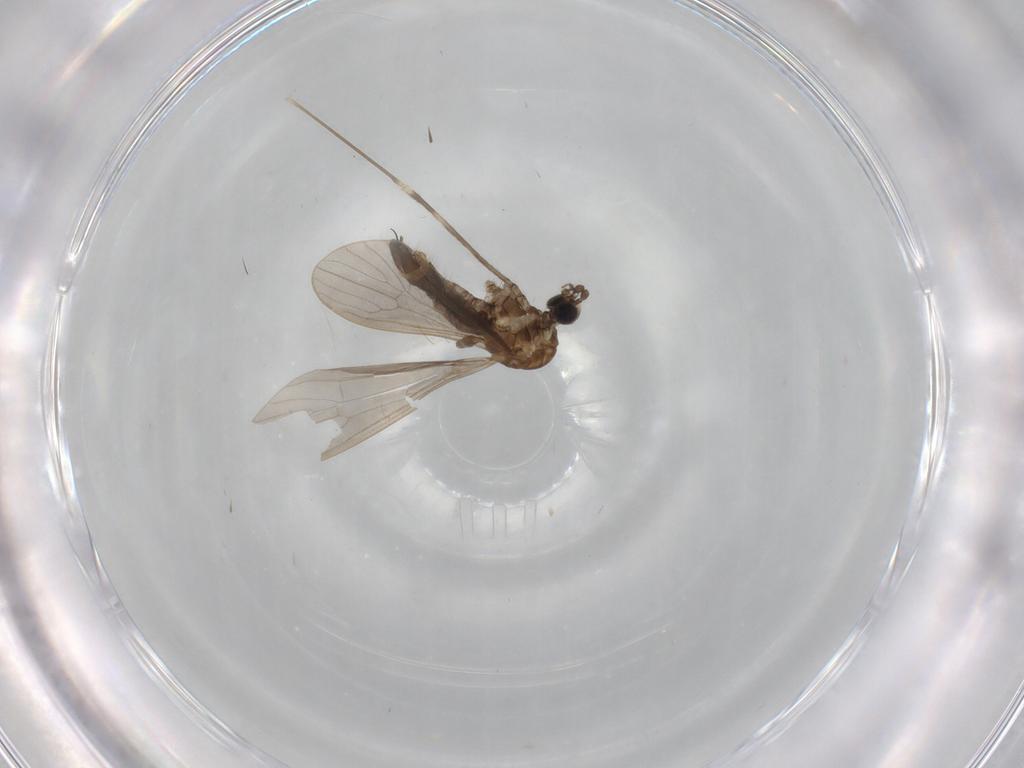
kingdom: Animalia
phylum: Arthropoda
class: Insecta
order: Diptera
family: Limoniidae
